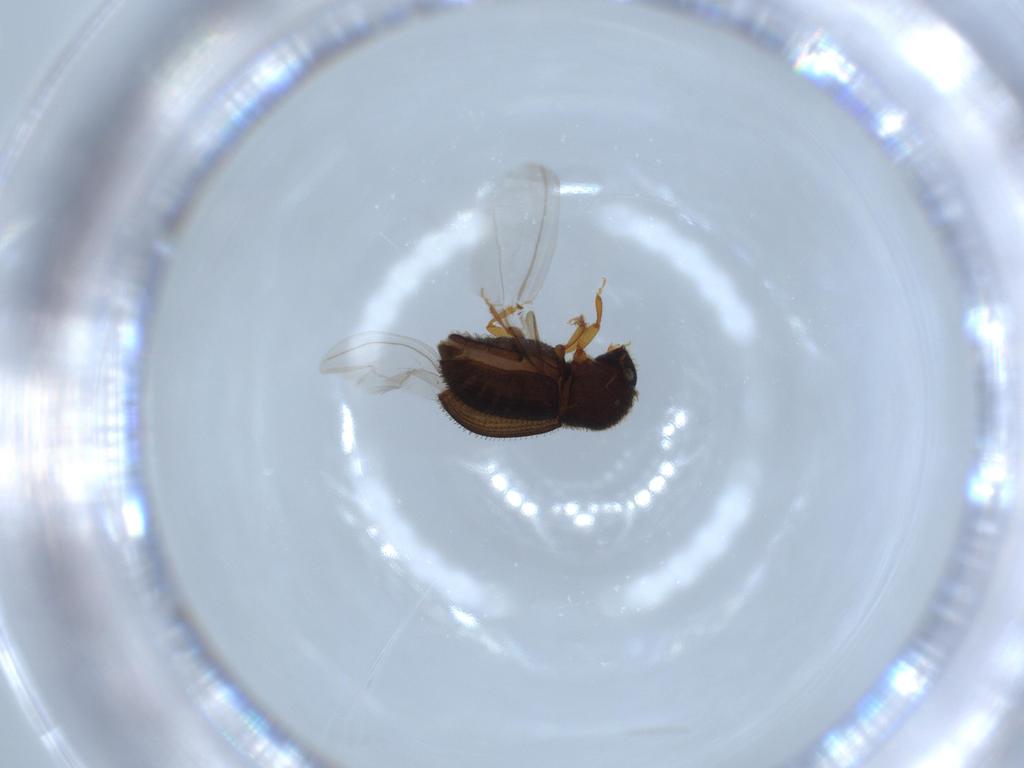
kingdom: Animalia
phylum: Arthropoda
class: Insecta
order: Coleoptera
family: Curculionidae
